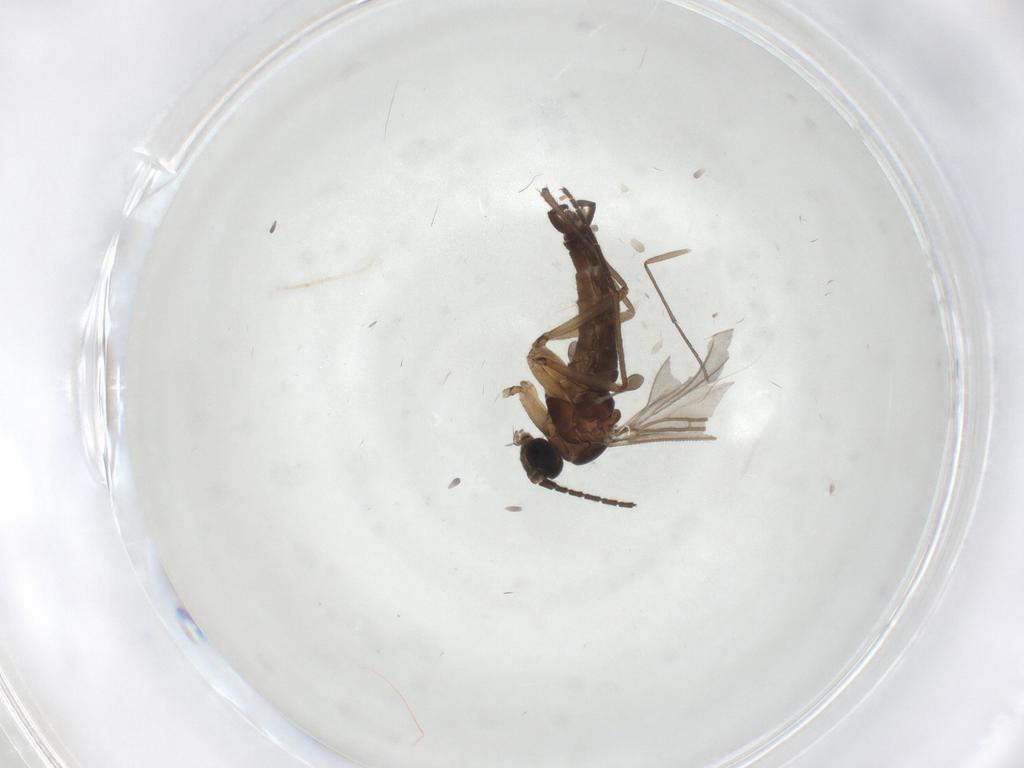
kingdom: Animalia
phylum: Arthropoda
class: Insecta
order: Diptera
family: Sciaridae
